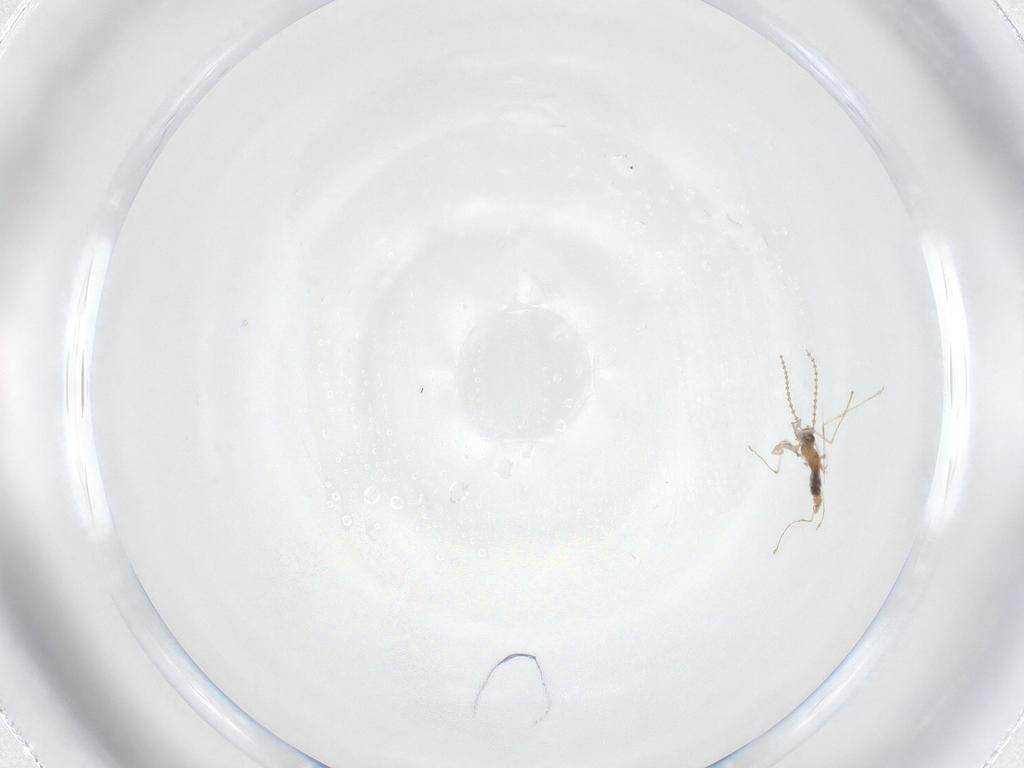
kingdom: Animalia
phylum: Arthropoda
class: Insecta
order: Diptera
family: Cecidomyiidae
